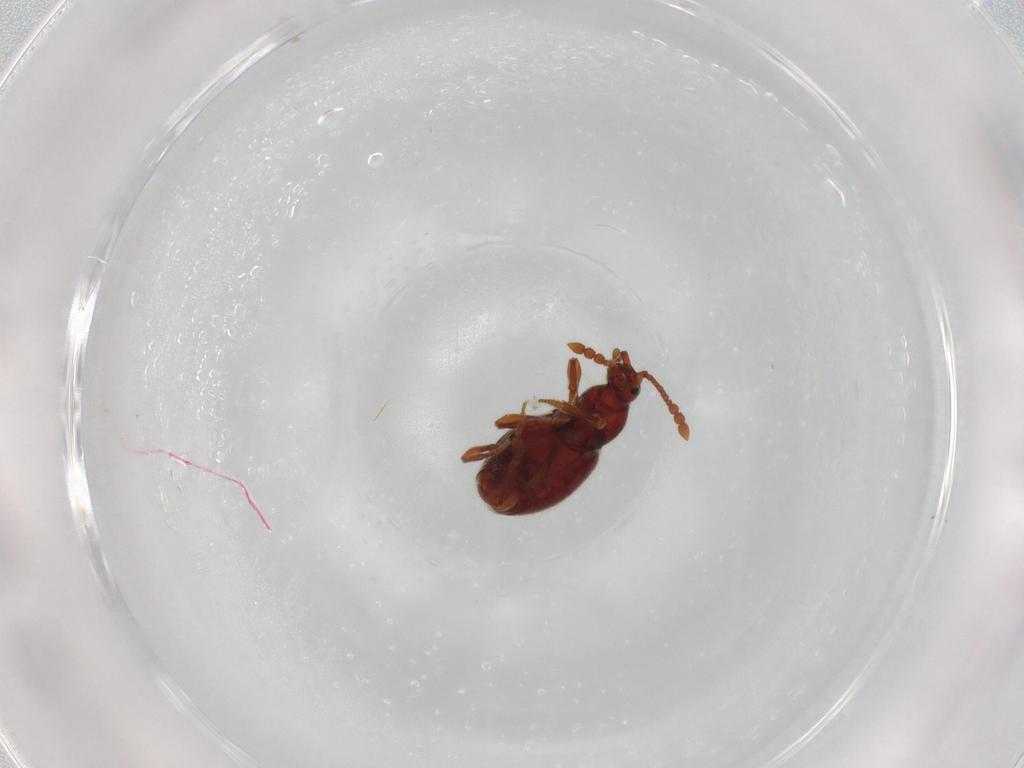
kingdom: Animalia
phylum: Arthropoda
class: Insecta
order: Coleoptera
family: Staphylinidae
